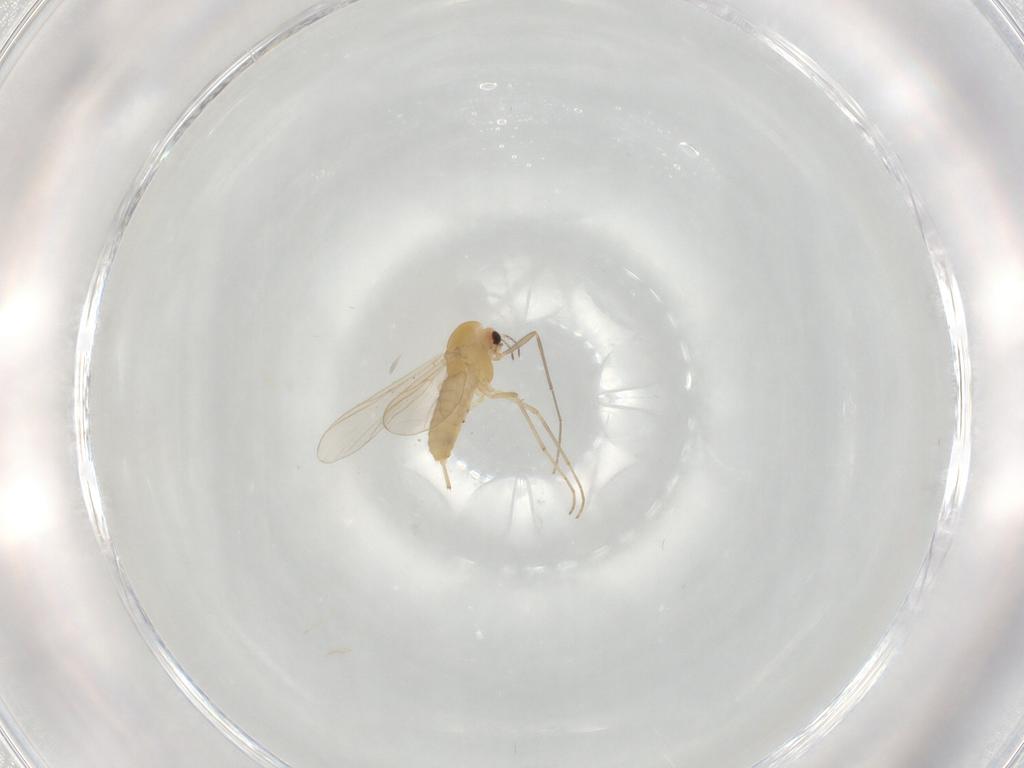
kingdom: Animalia
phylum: Arthropoda
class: Insecta
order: Diptera
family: Chironomidae
